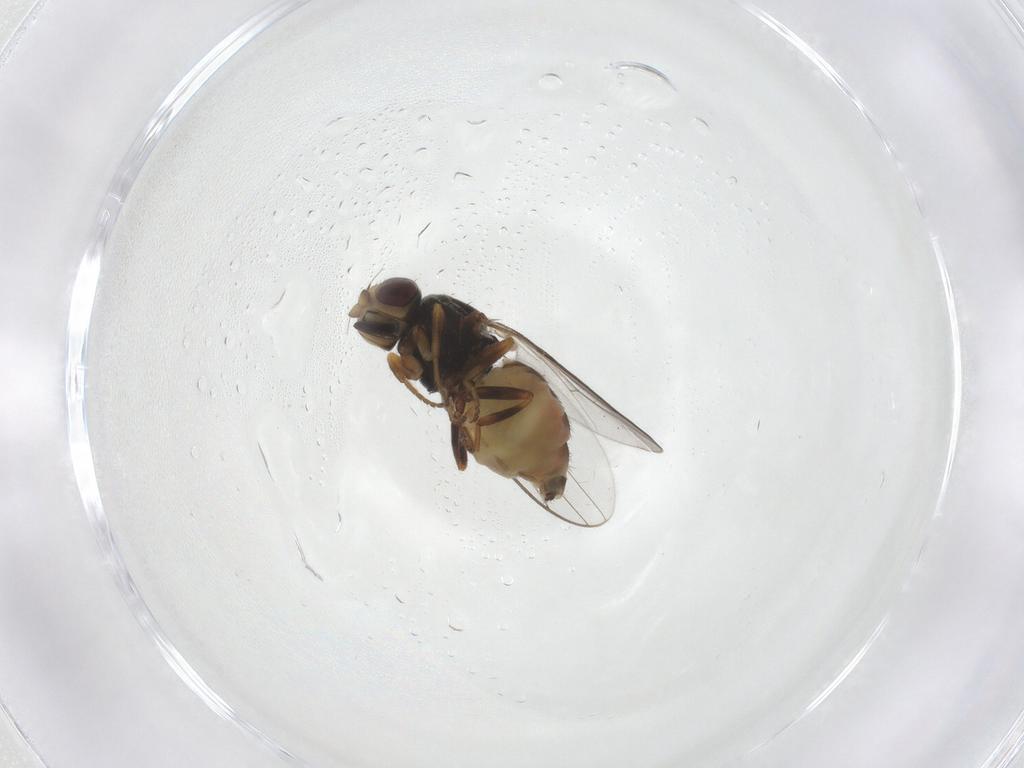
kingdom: Animalia
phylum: Arthropoda
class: Insecta
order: Diptera
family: Chloropidae
